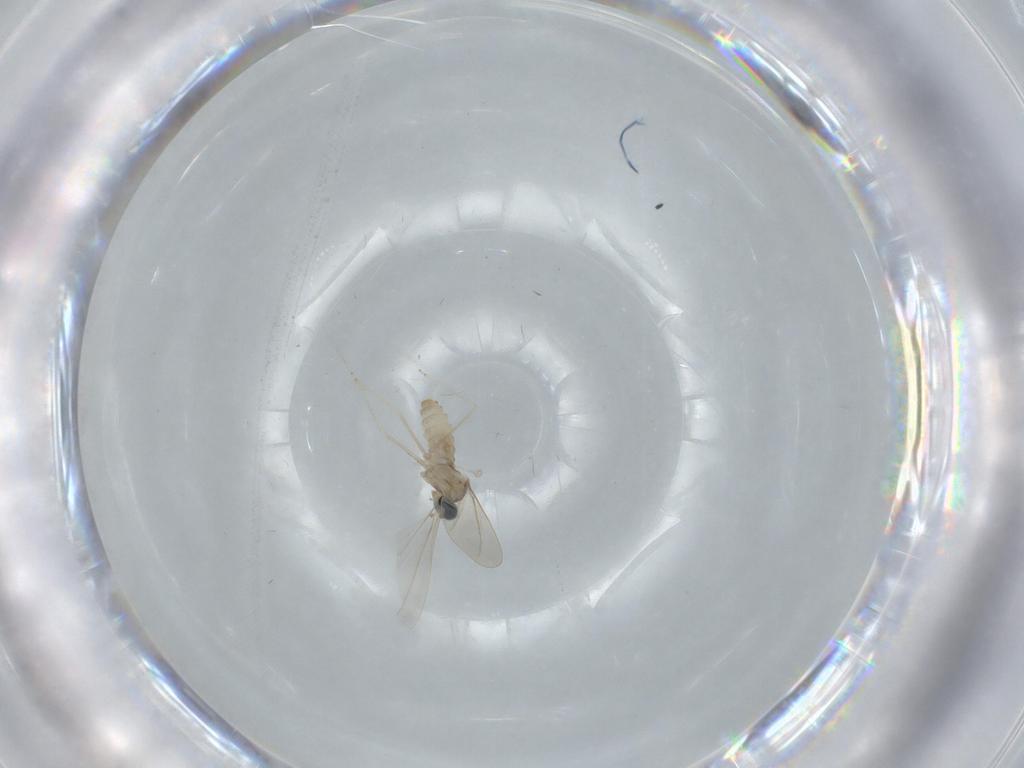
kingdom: Animalia
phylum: Arthropoda
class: Insecta
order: Diptera
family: Cecidomyiidae
